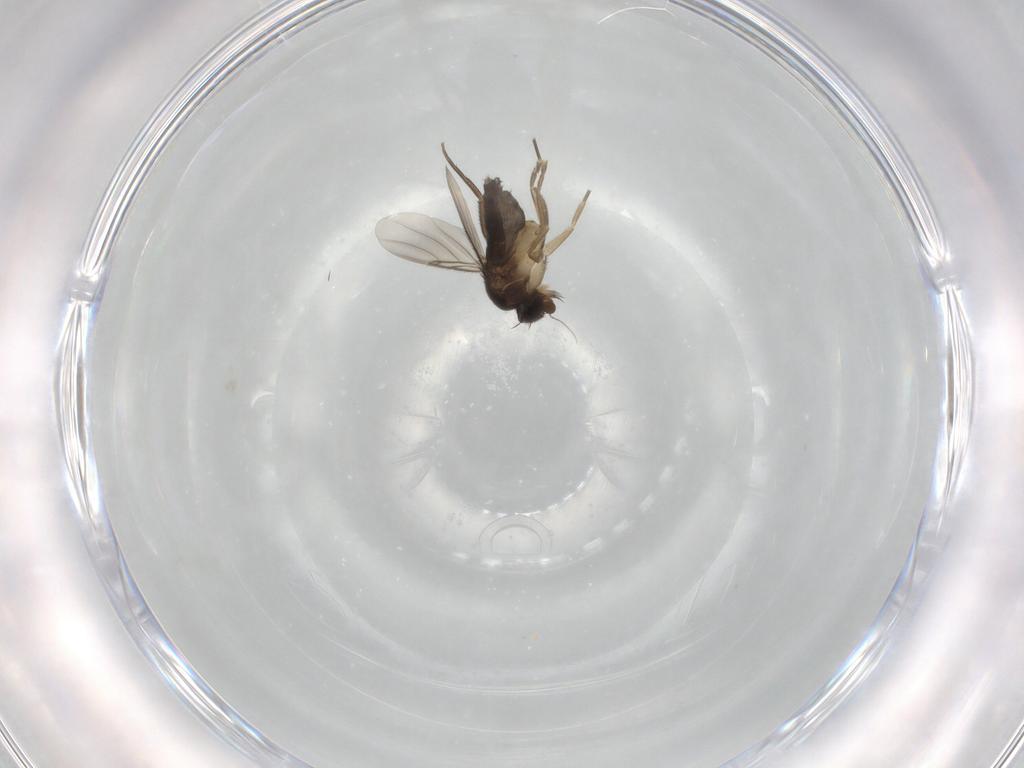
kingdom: Animalia
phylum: Arthropoda
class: Insecta
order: Diptera
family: Phoridae
